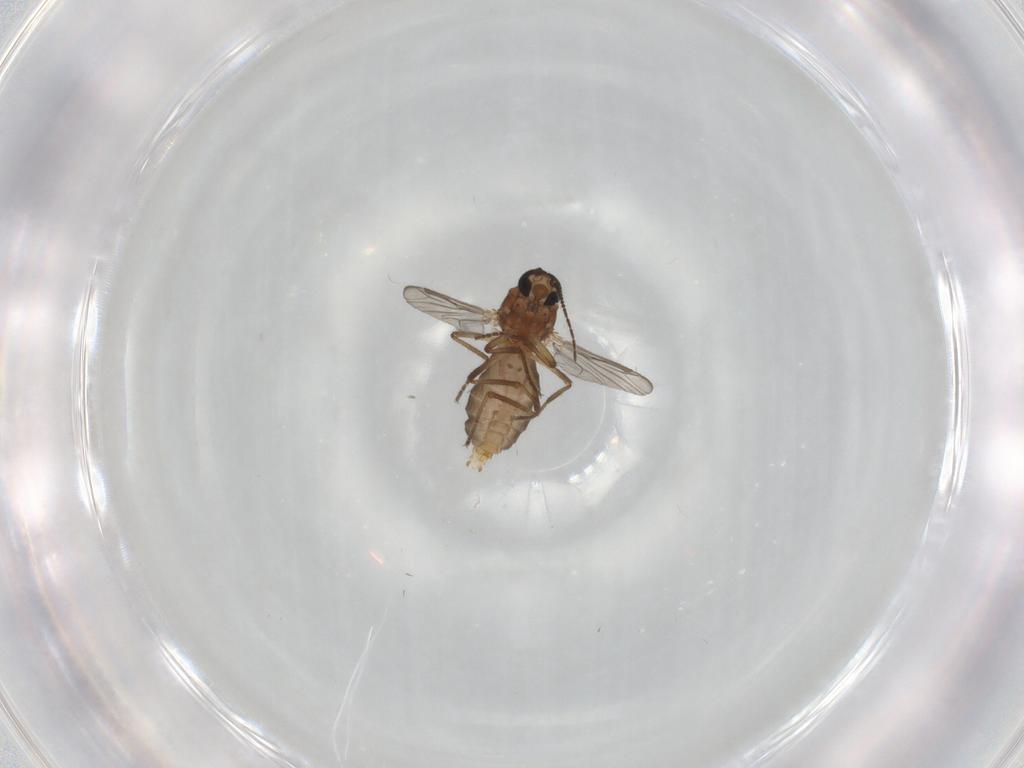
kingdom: Animalia
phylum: Arthropoda
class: Insecta
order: Diptera
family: Ceratopogonidae
